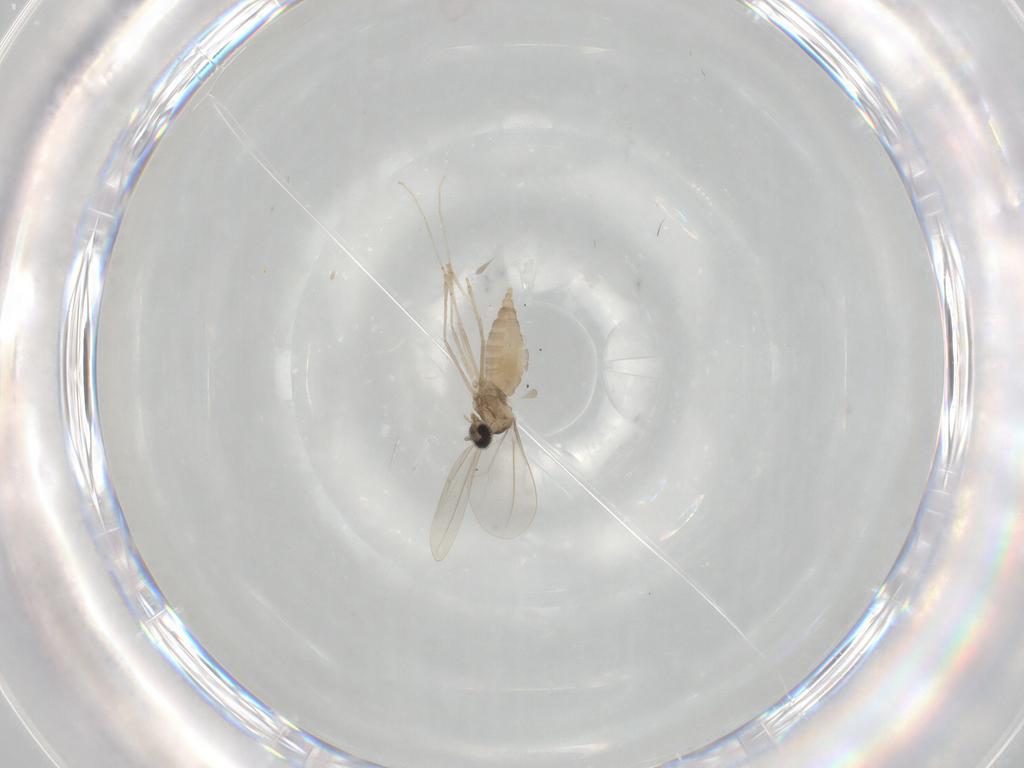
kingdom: Animalia
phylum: Arthropoda
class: Insecta
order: Diptera
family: Cecidomyiidae
